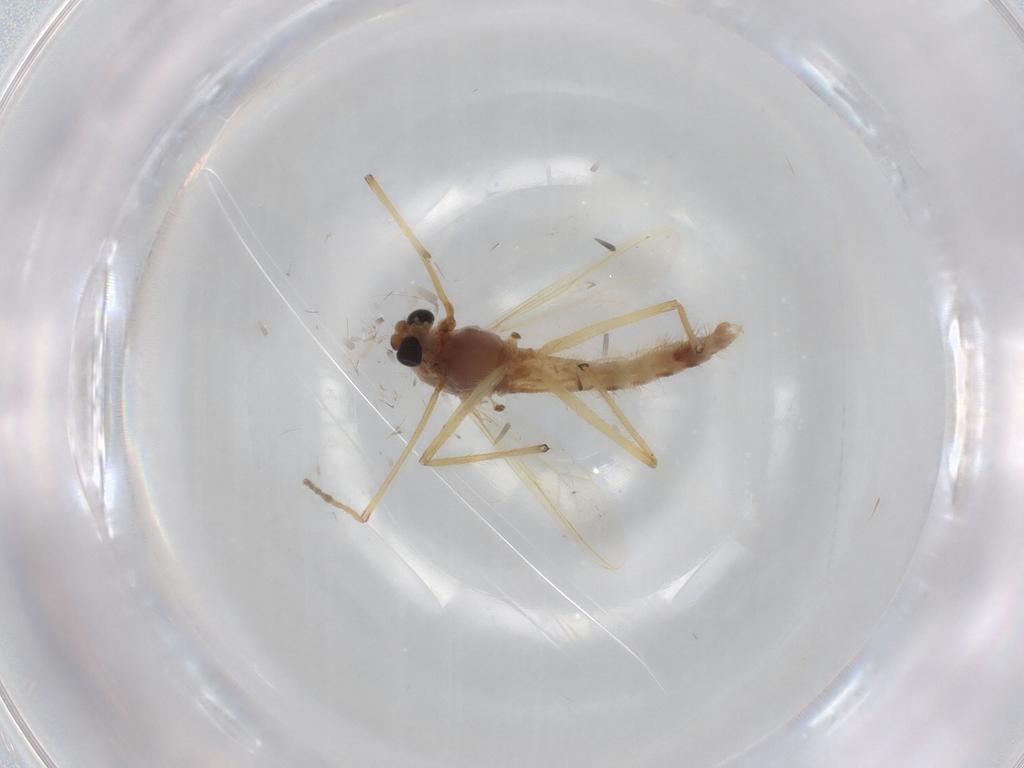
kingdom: Animalia
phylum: Arthropoda
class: Insecta
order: Diptera
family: Chironomidae
